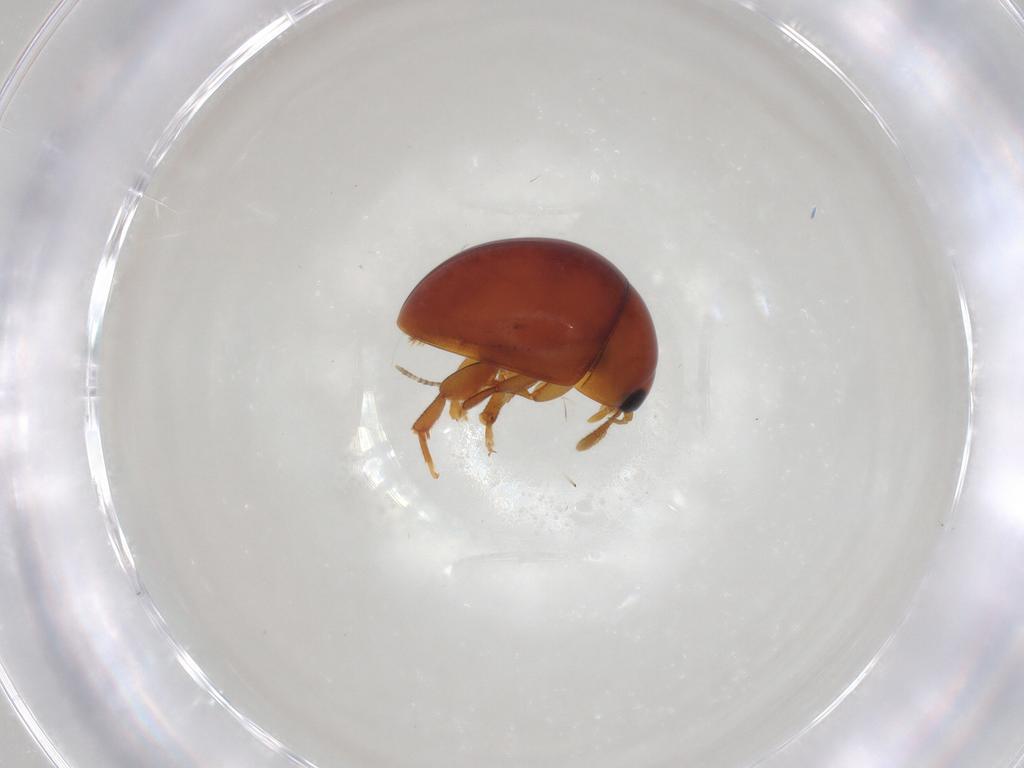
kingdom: Animalia
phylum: Arthropoda
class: Insecta
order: Coleoptera
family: Phalacridae
